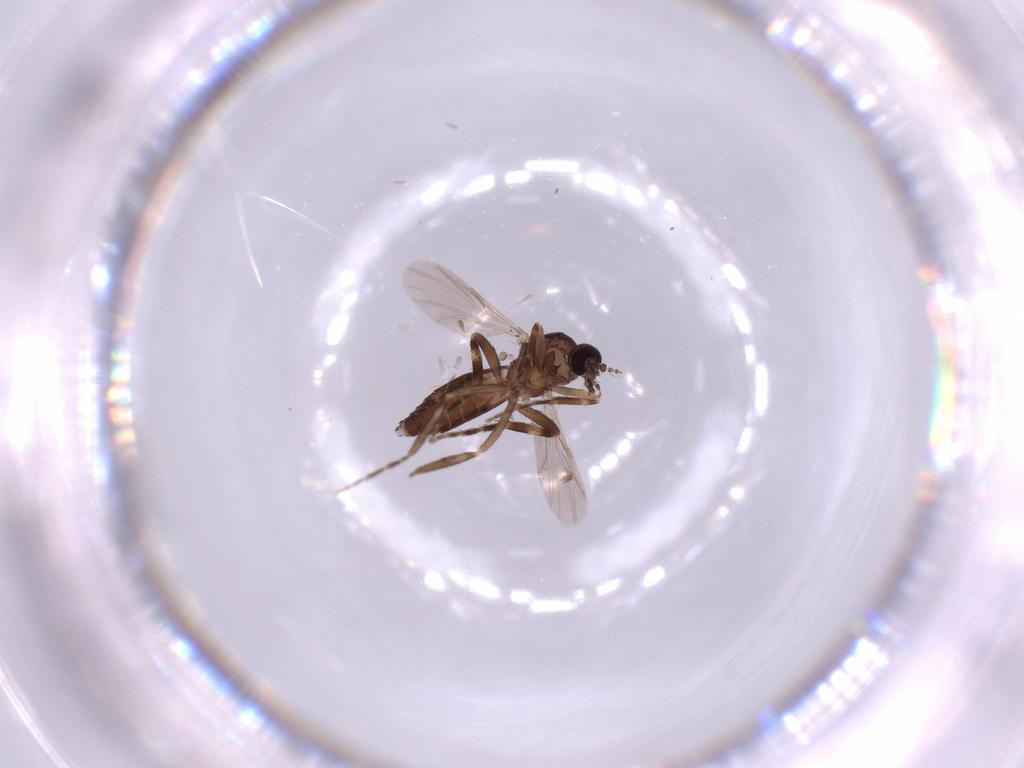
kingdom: Animalia
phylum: Arthropoda
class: Insecta
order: Diptera
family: Ceratopogonidae
